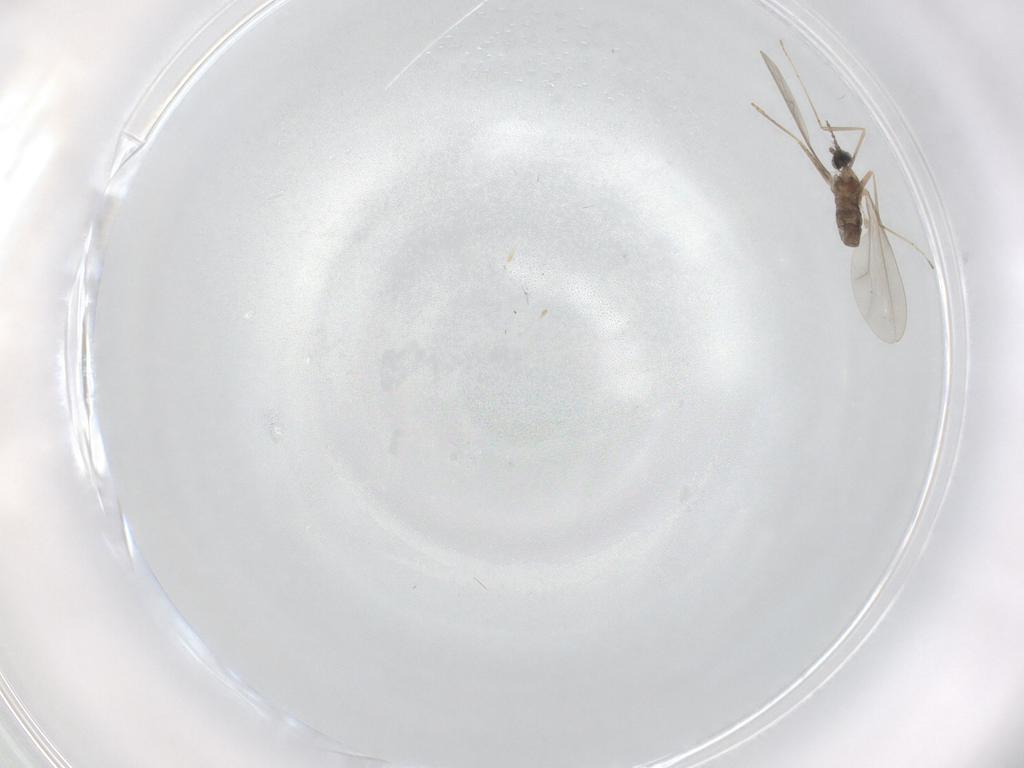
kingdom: Animalia
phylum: Arthropoda
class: Insecta
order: Diptera
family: Cecidomyiidae
